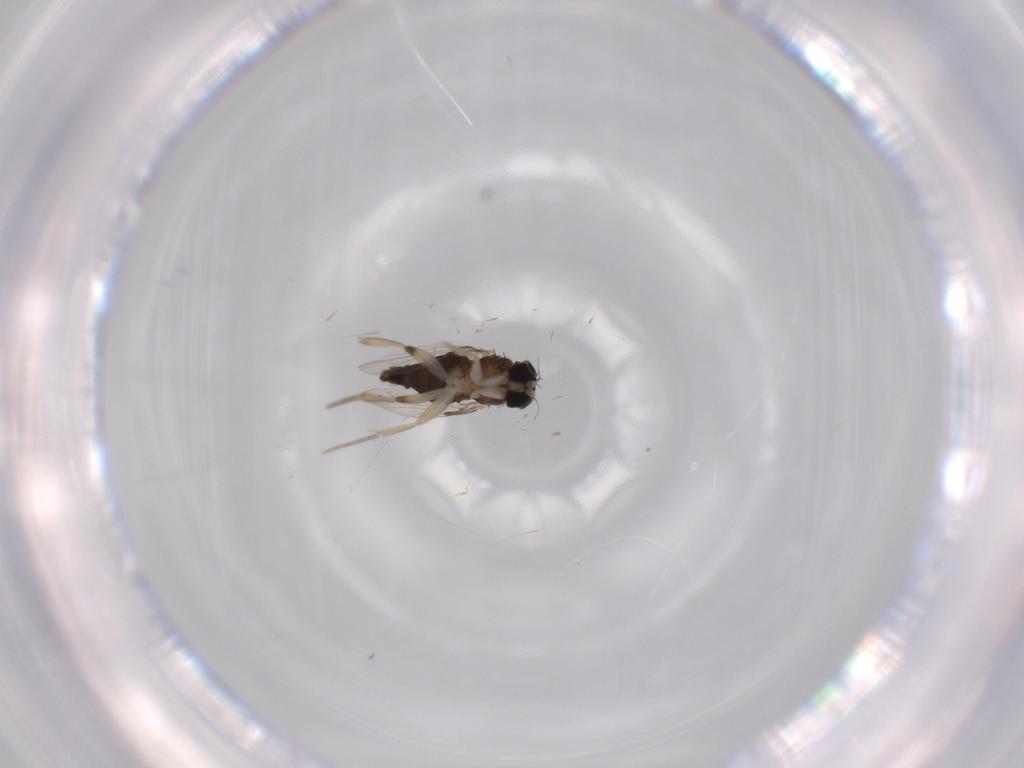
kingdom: Animalia
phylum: Arthropoda
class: Insecta
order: Diptera
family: Phoridae
